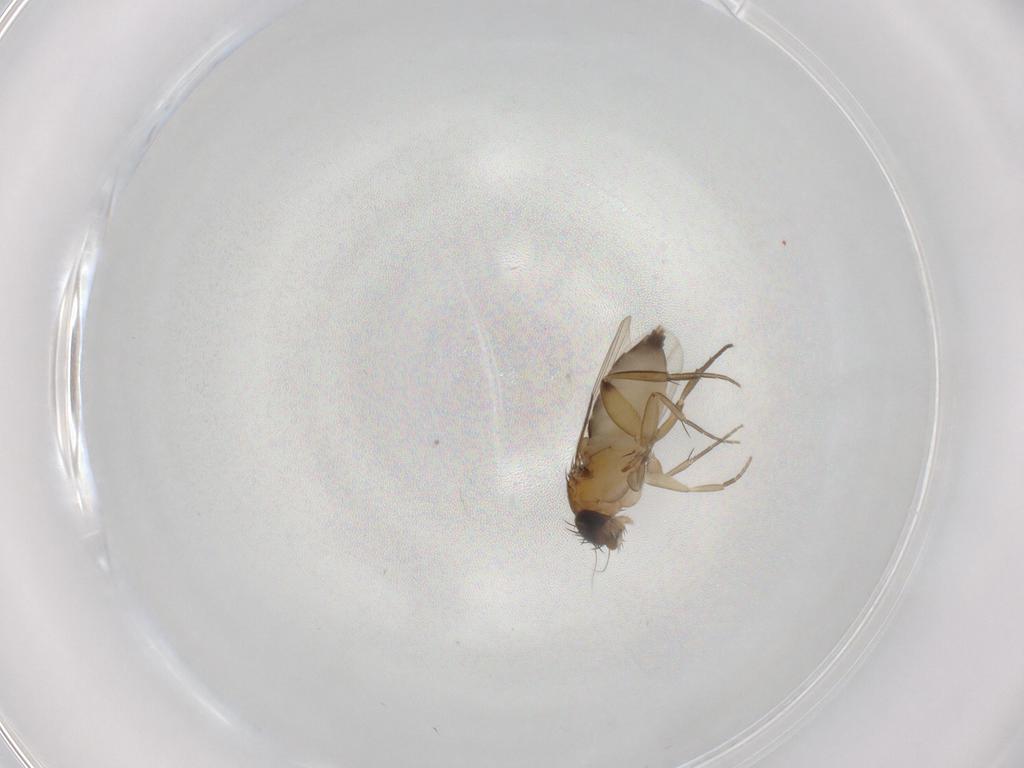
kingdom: Animalia
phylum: Arthropoda
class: Insecta
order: Diptera
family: Phoridae
